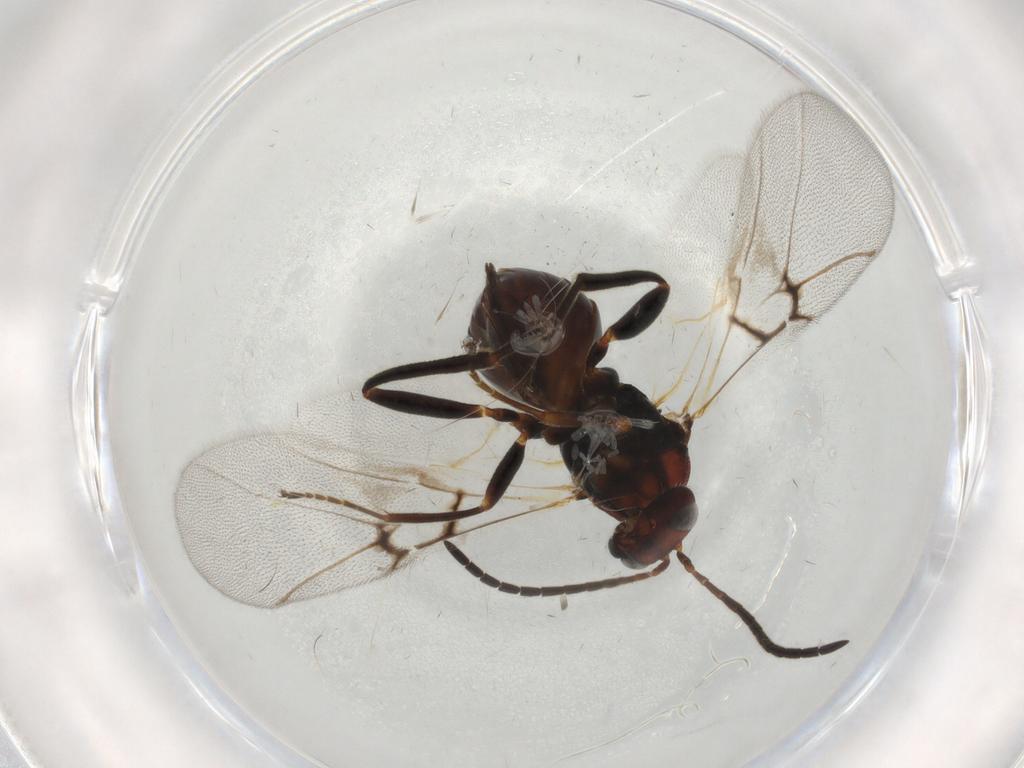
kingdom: Animalia
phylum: Arthropoda
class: Insecta
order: Hymenoptera
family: Cynipidae
